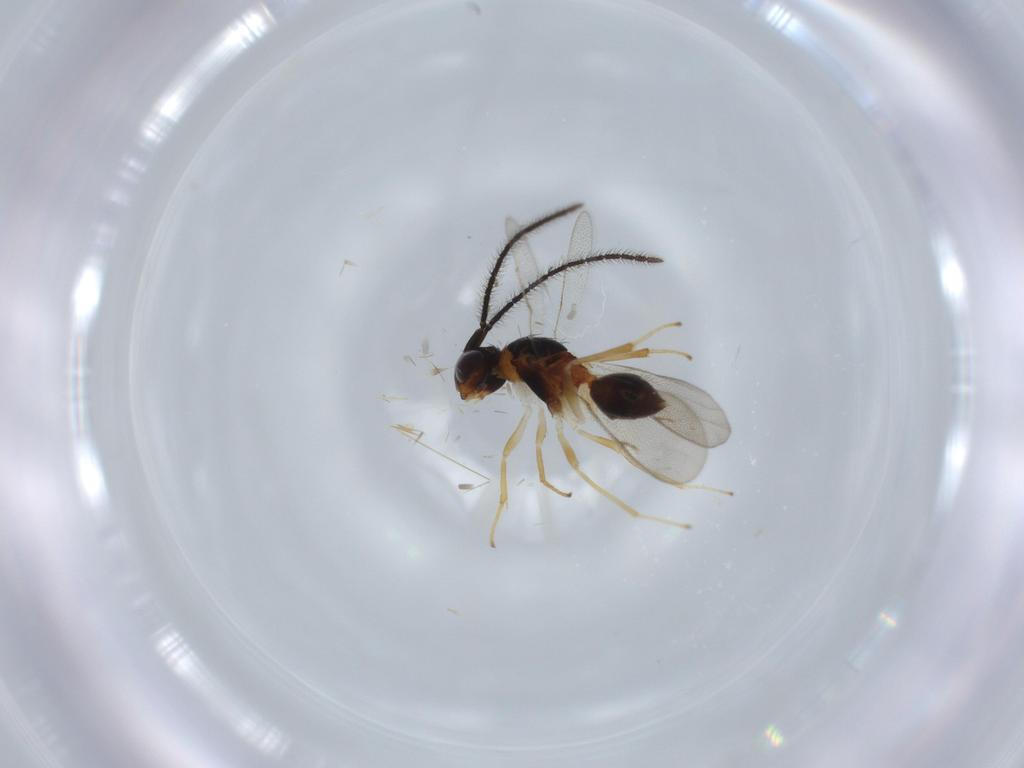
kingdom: Animalia
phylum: Arthropoda
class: Insecta
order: Hymenoptera
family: Diparidae
